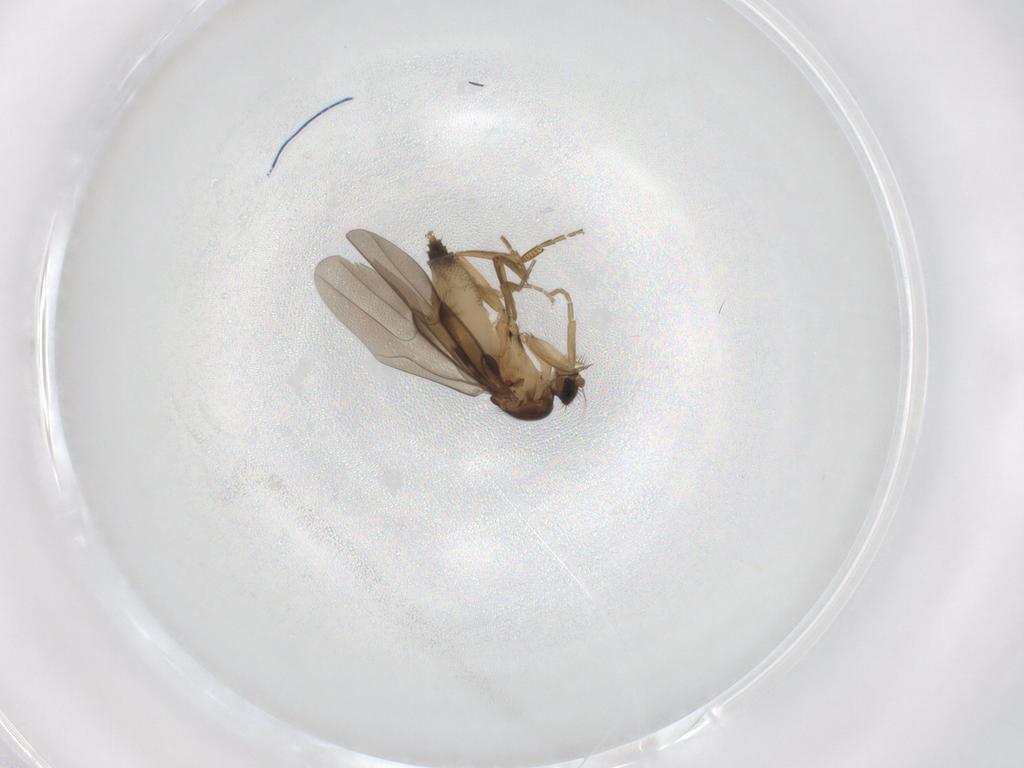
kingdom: Animalia
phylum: Arthropoda
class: Insecta
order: Diptera
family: Phoridae
